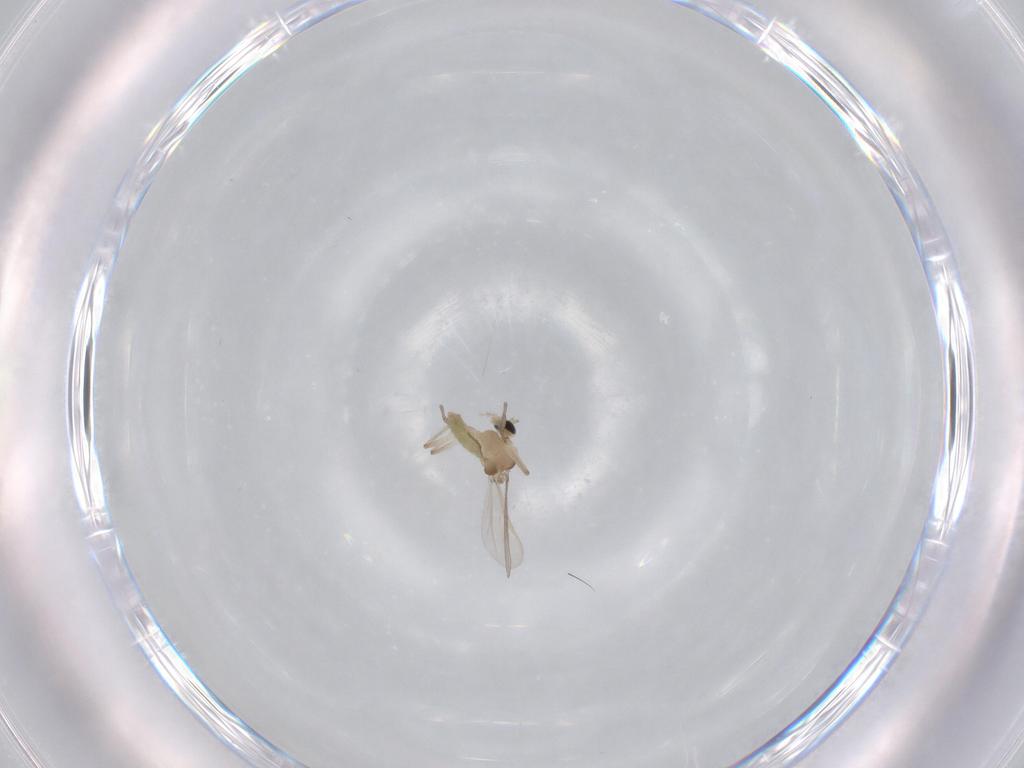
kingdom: Animalia
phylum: Arthropoda
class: Insecta
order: Diptera
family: Chironomidae
